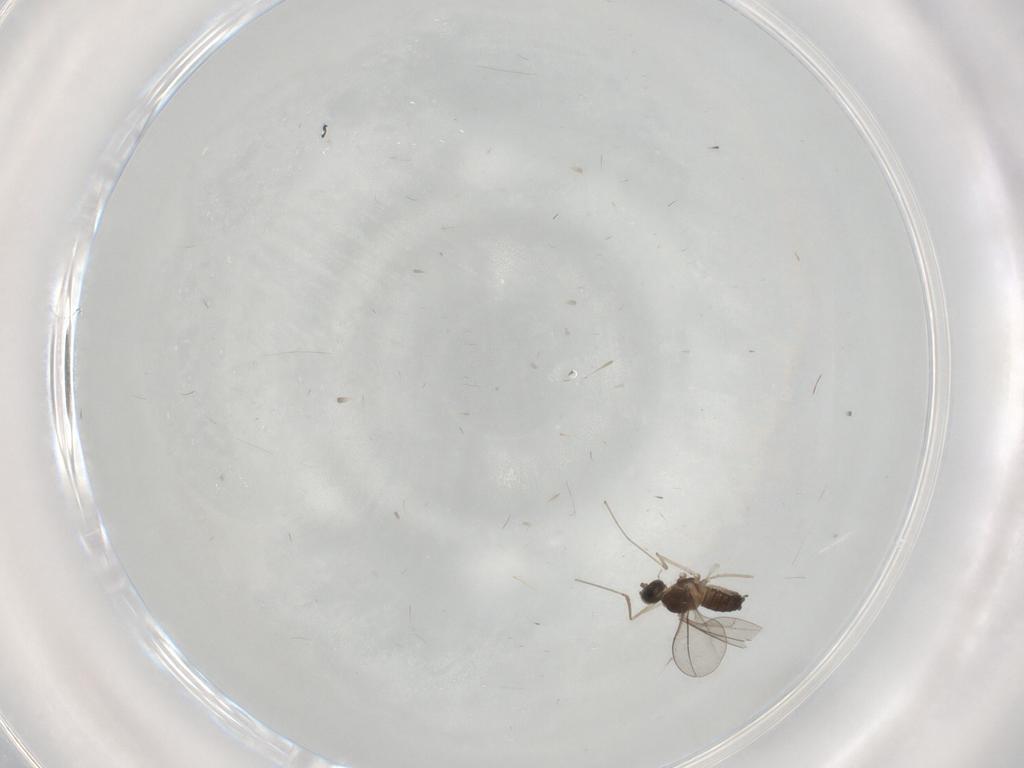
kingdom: Animalia
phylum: Arthropoda
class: Insecta
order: Diptera
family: Cecidomyiidae
